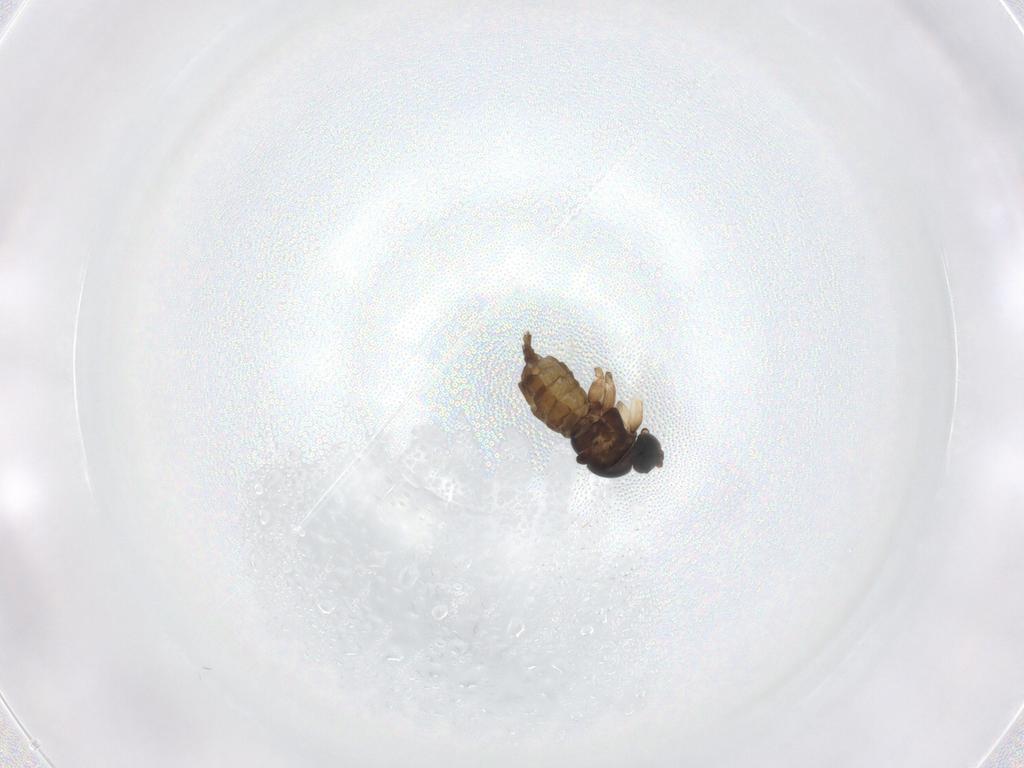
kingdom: Animalia
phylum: Arthropoda
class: Insecta
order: Diptera
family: Sciaridae
